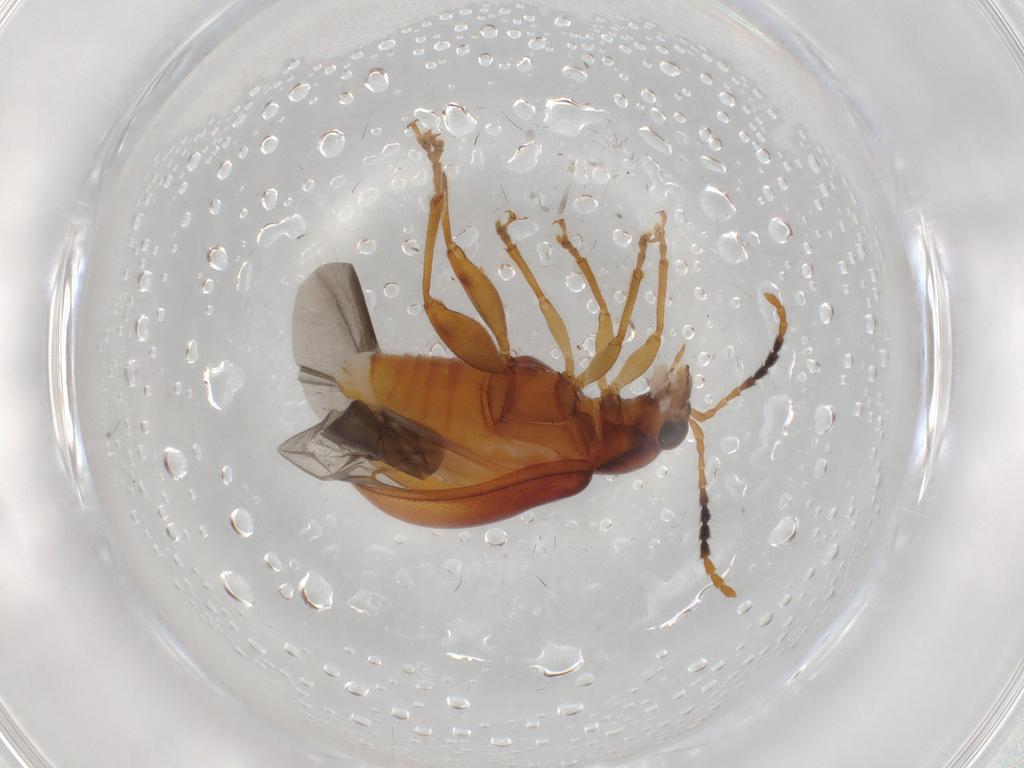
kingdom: Animalia
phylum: Arthropoda
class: Insecta
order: Coleoptera
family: Chrysomelidae
